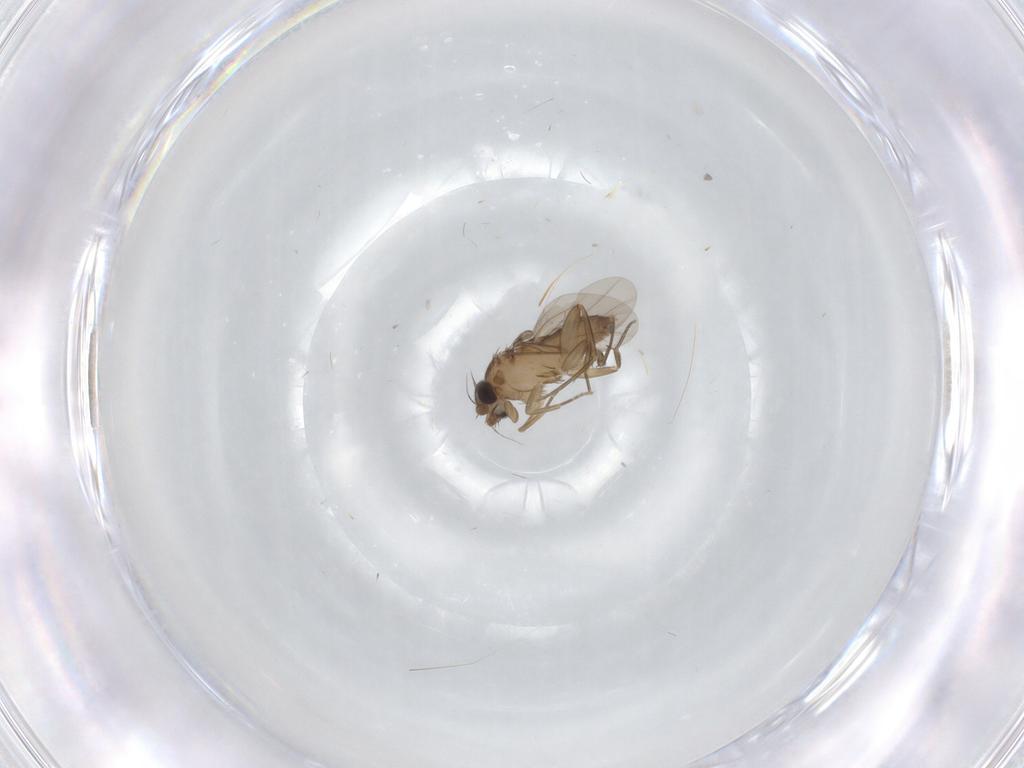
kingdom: Animalia
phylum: Arthropoda
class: Insecta
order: Diptera
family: Phoridae
